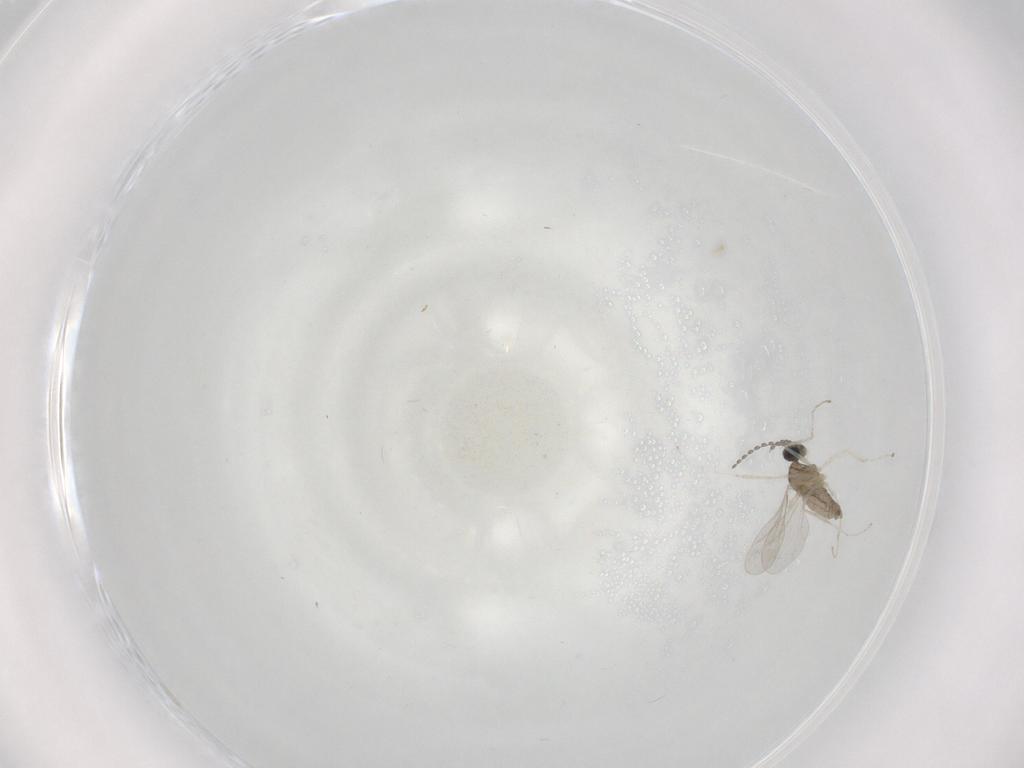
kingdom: Animalia
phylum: Arthropoda
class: Insecta
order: Diptera
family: Cecidomyiidae
